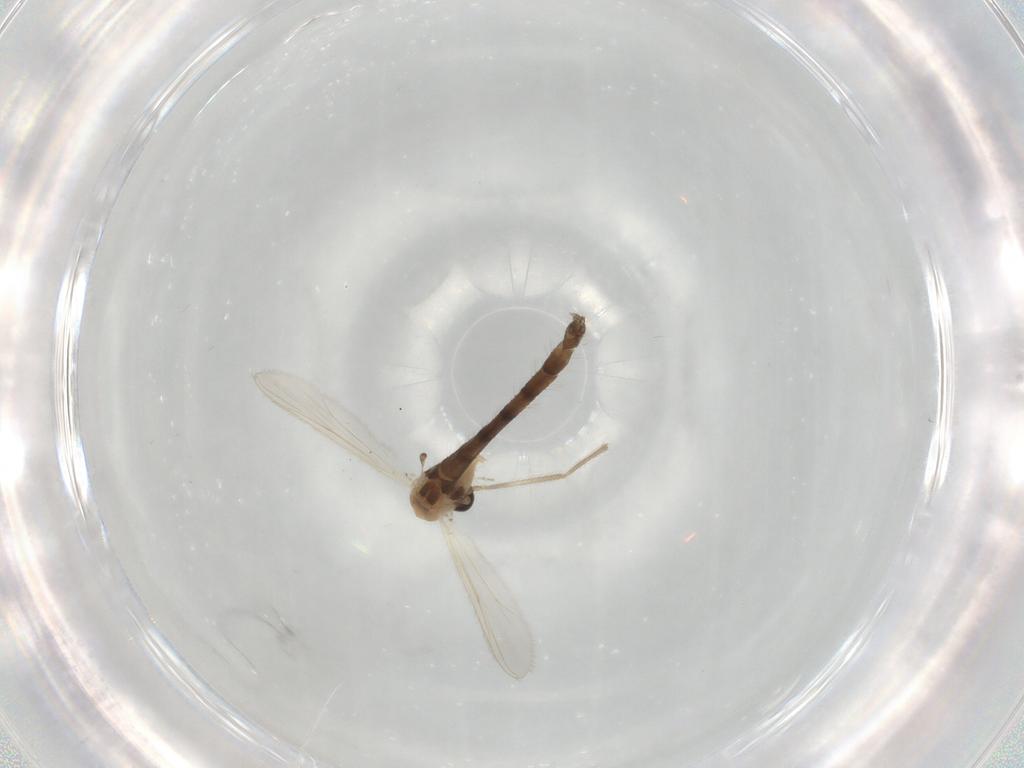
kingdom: Animalia
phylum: Arthropoda
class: Insecta
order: Diptera
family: Chironomidae
